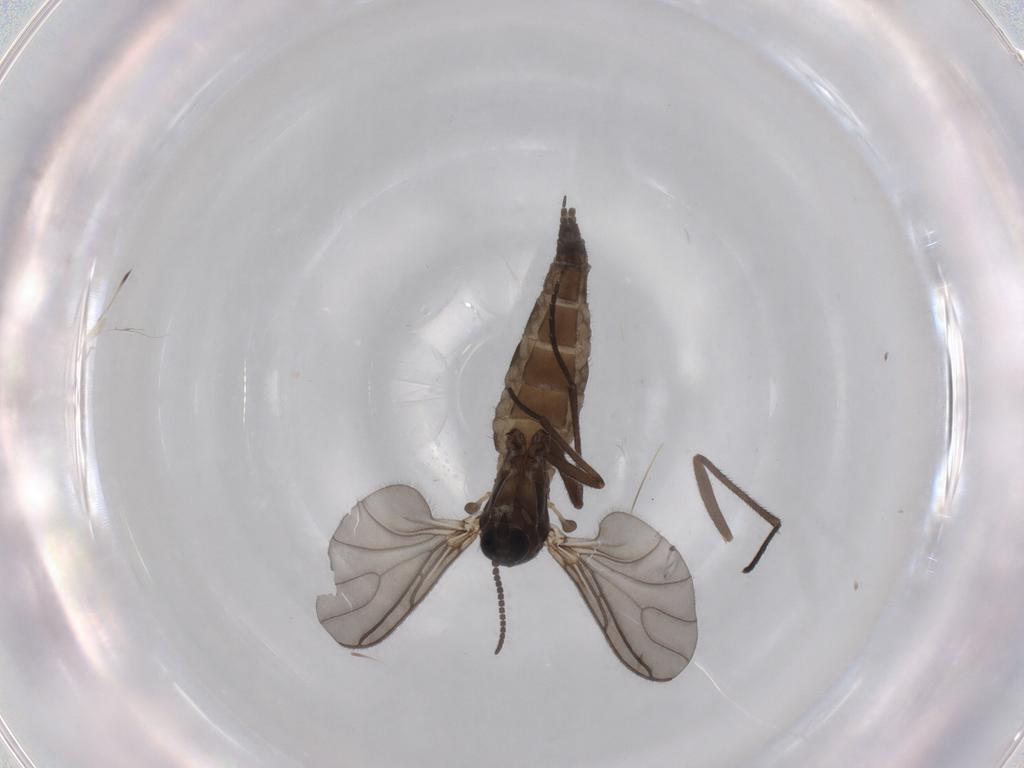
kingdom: Animalia
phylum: Arthropoda
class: Insecta
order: Diptera
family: Sciaridae
